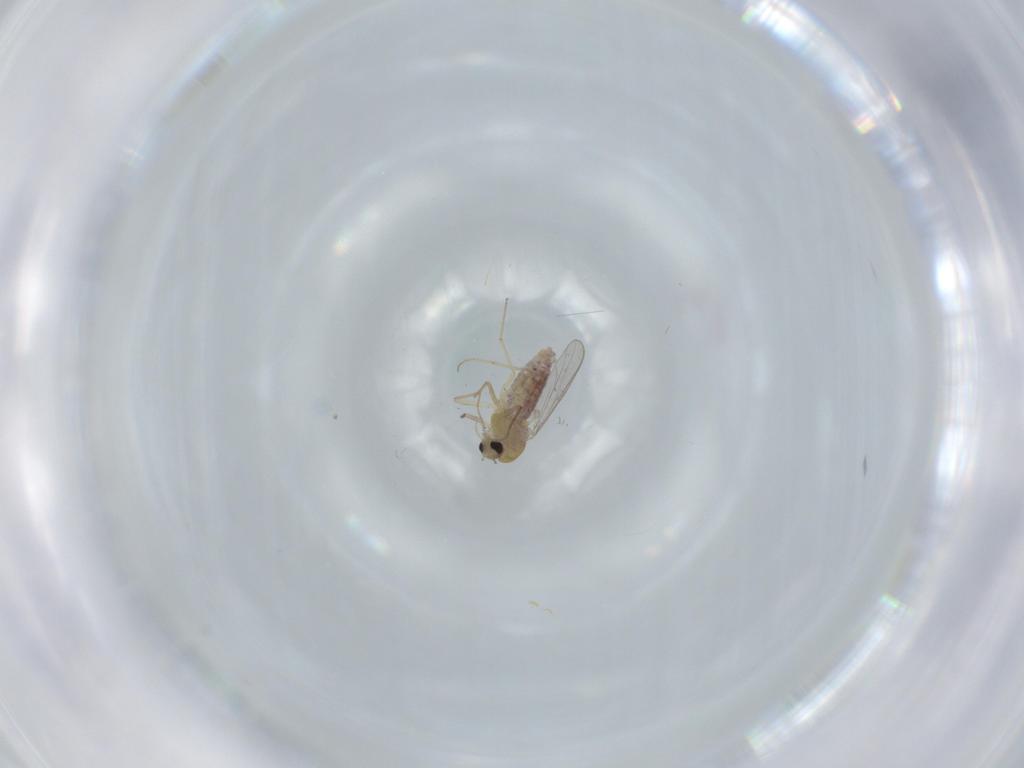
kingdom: Animalia
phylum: Arthropoda
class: Insecta
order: Diptera
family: Chironomidae
